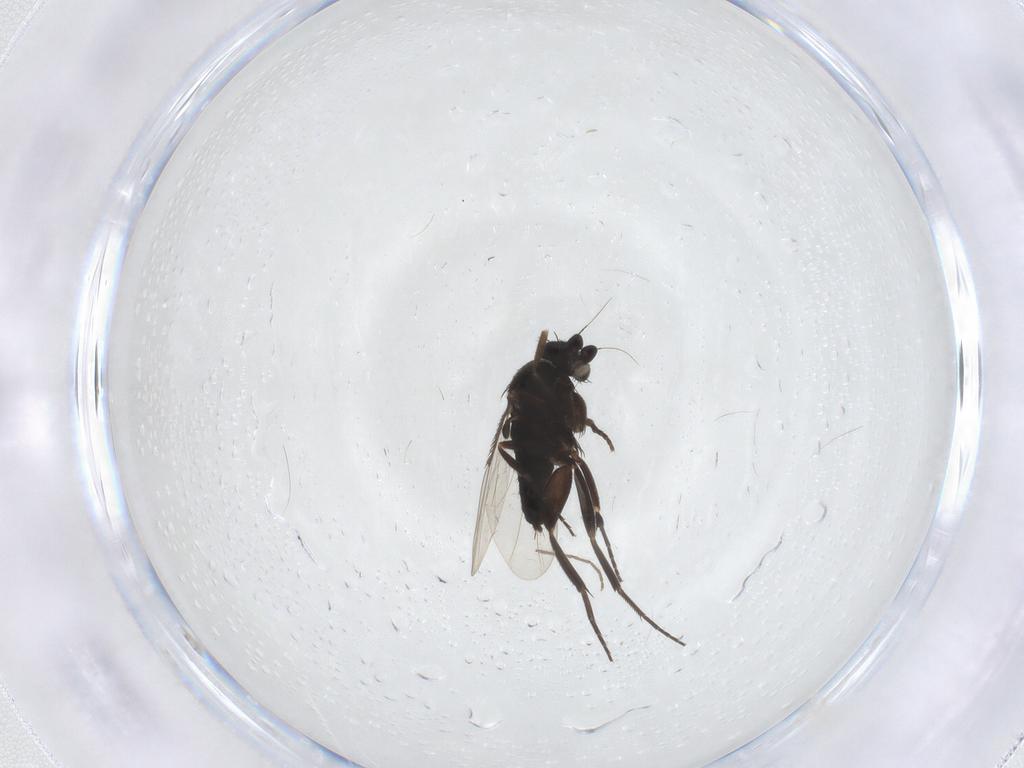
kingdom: Animalia
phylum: Arthropoda
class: Insecta
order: Diptera
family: Phoridae
